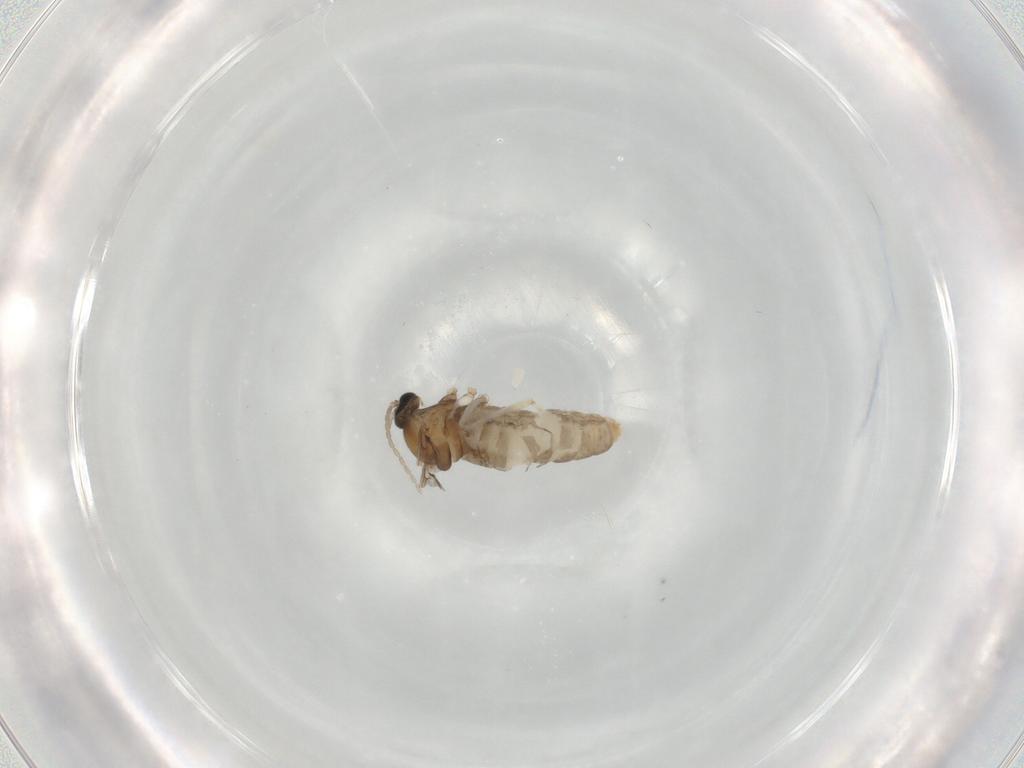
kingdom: Animalia
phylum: Arthropoda
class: Insecta
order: Diptera
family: Cecidomyiidae
